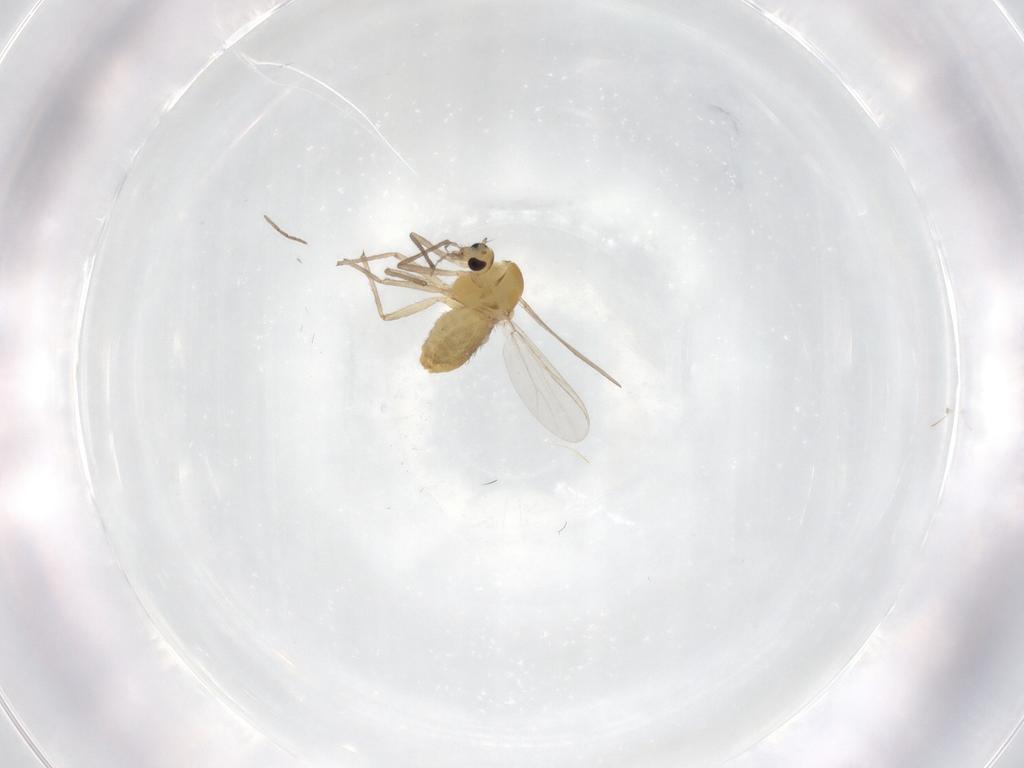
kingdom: Animalia
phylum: Arthropoda
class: Insecta
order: Diptera
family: Chironomidae
